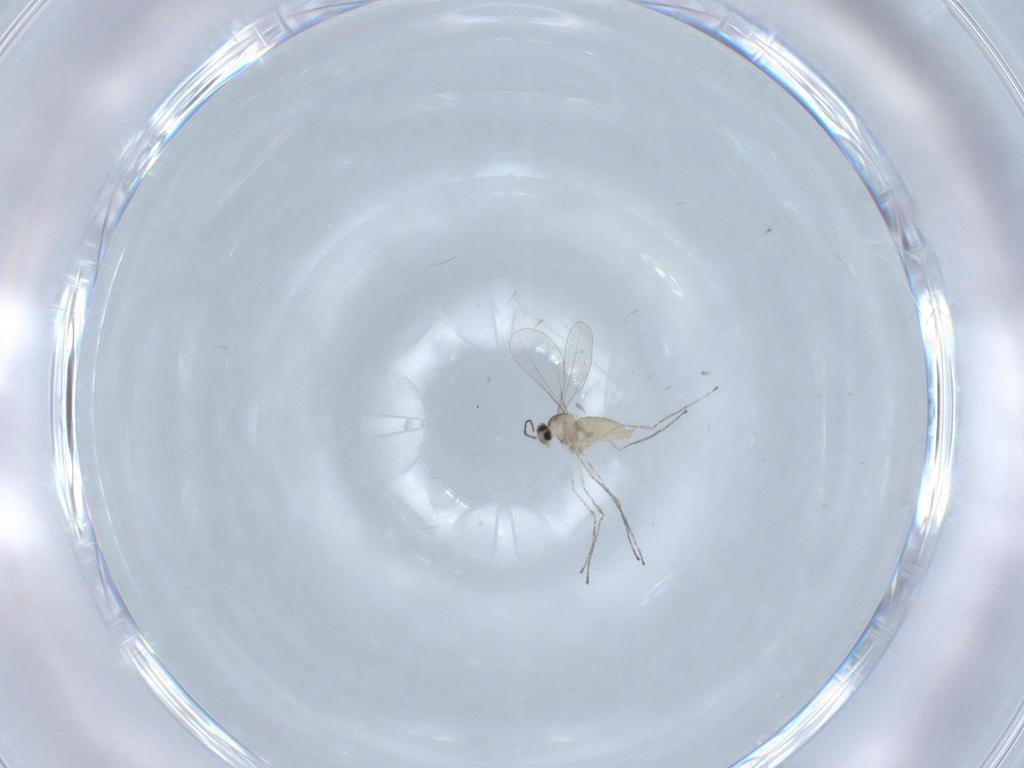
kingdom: Animalia
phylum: Arthropoda
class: Insecta
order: Diptera
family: Cecidomyiidae
